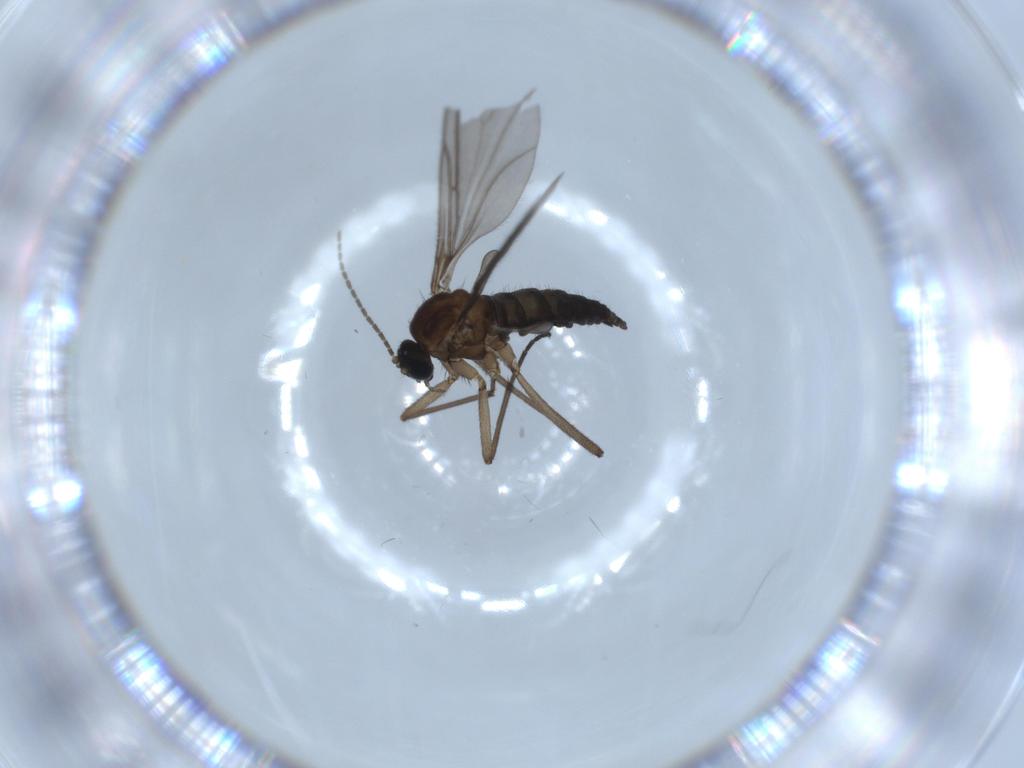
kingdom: Animalia
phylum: Arthropoda
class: Insecta
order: Diptera
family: Sciaridae
